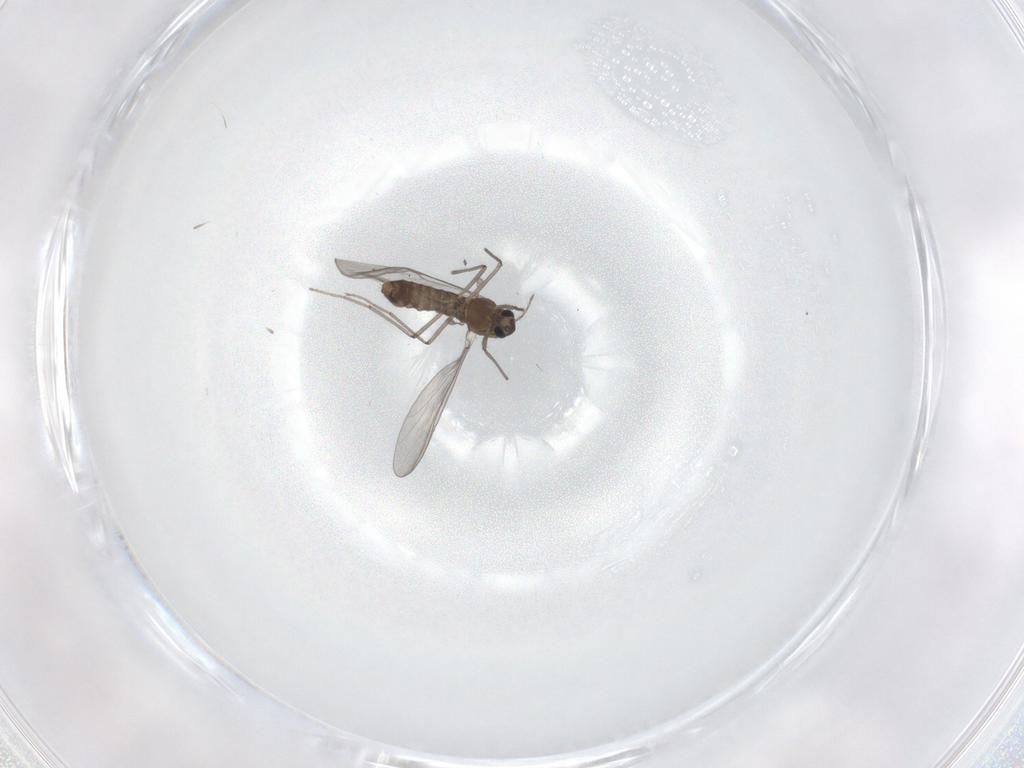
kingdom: Animalia
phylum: Arthropoda
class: Insecta
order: Diptera
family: Chironomidae
